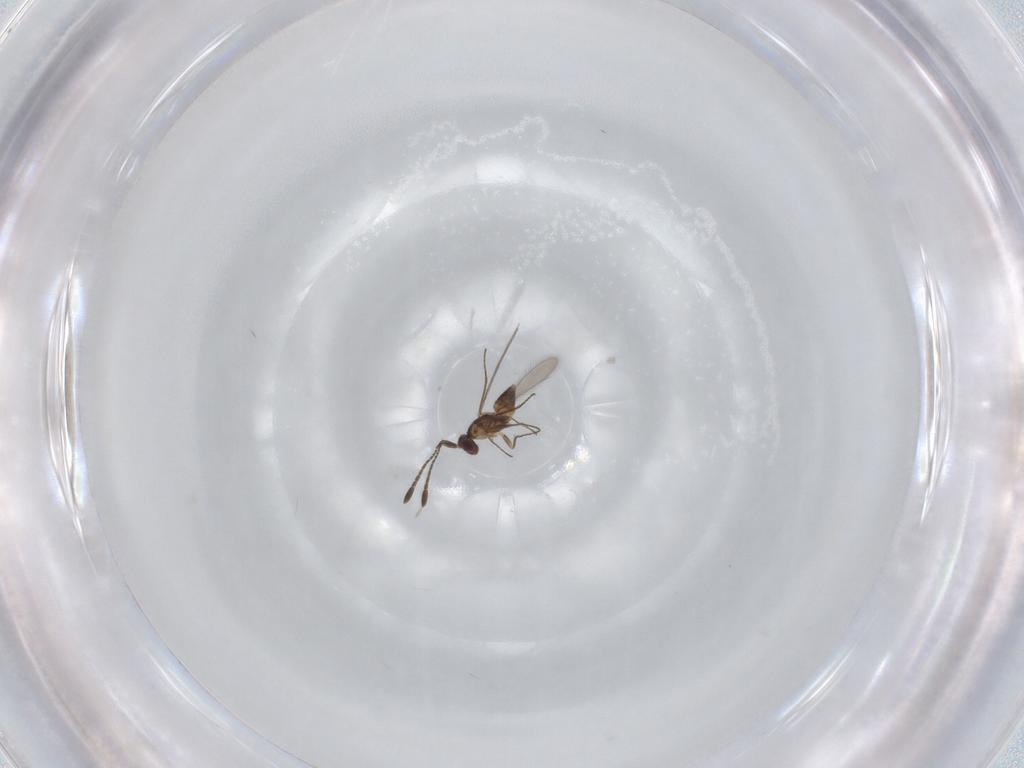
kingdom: Animalia
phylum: Arthropoda
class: Insecta
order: Hymenoptera
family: Mymaridae
